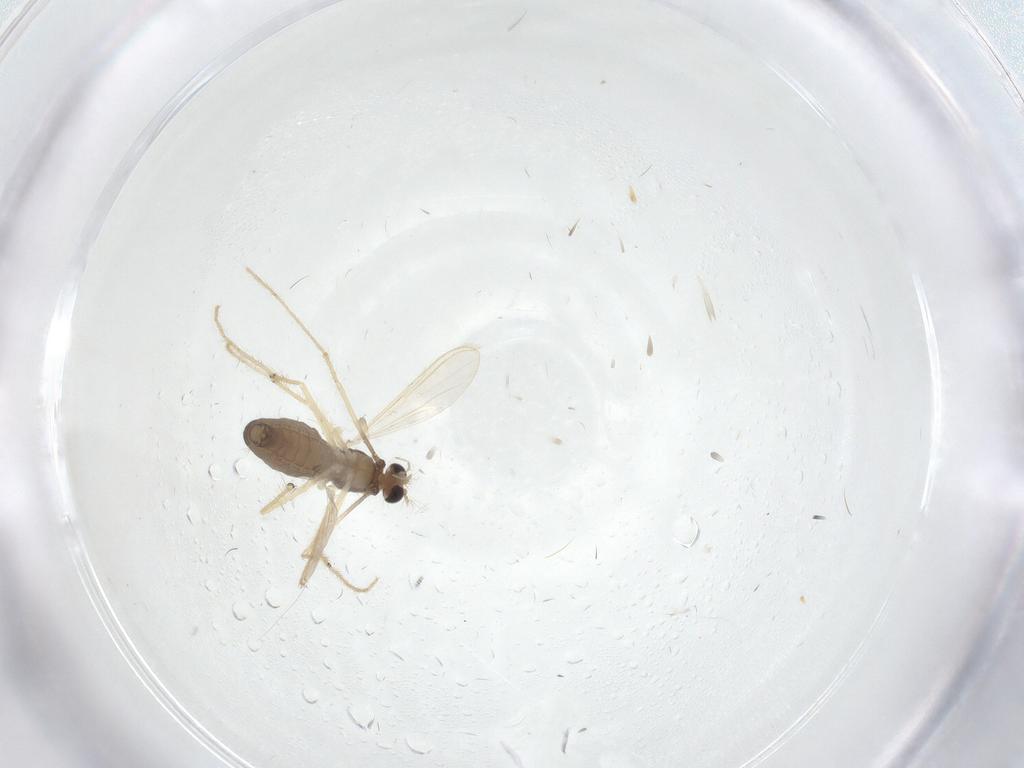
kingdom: Animalia
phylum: Arthropoda
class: Insecta
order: Diptera
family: Chironomidae
